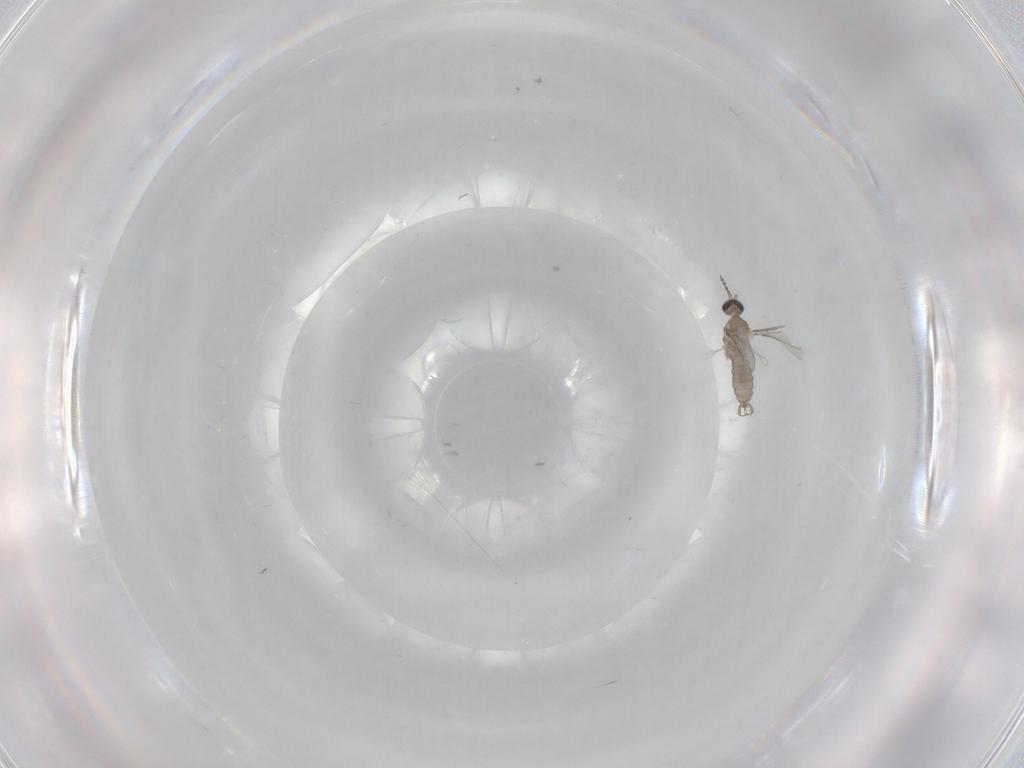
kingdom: Animalia
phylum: Arthropoda
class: Insecta
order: Diptera
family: Cecidomyiidae
